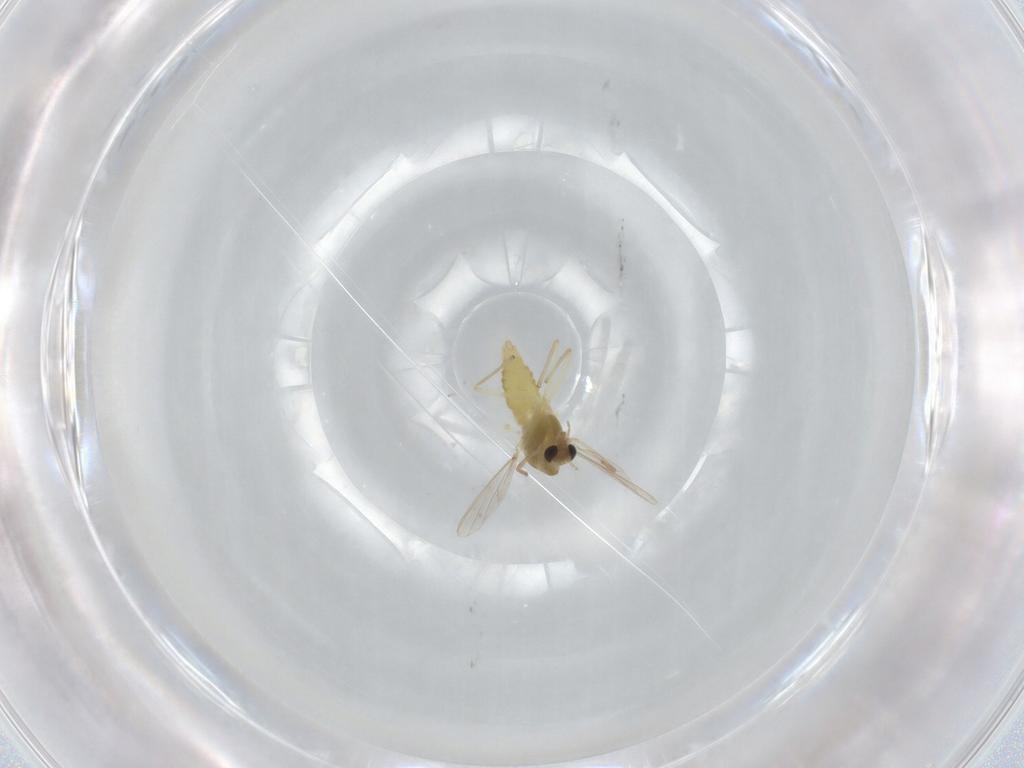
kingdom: Animalia
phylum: Arthropoda
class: Insecta
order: Diptera
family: Chironomidae
